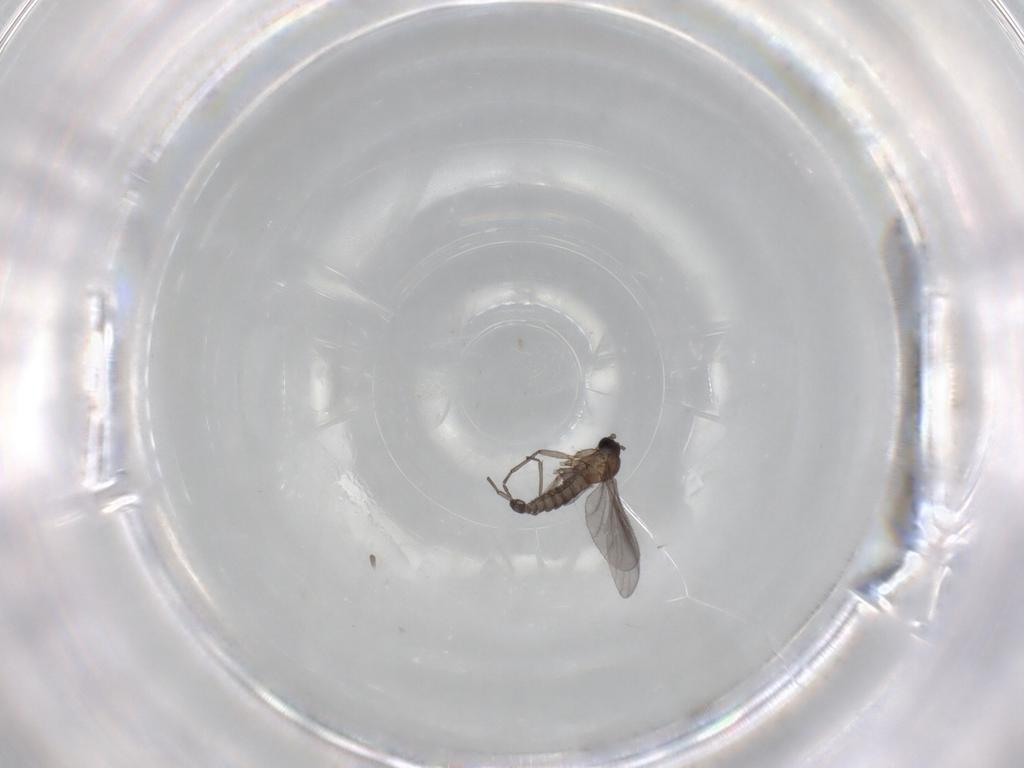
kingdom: Animalia
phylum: Arthropoda
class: Insecta
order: Diptera
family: Sciaridae
